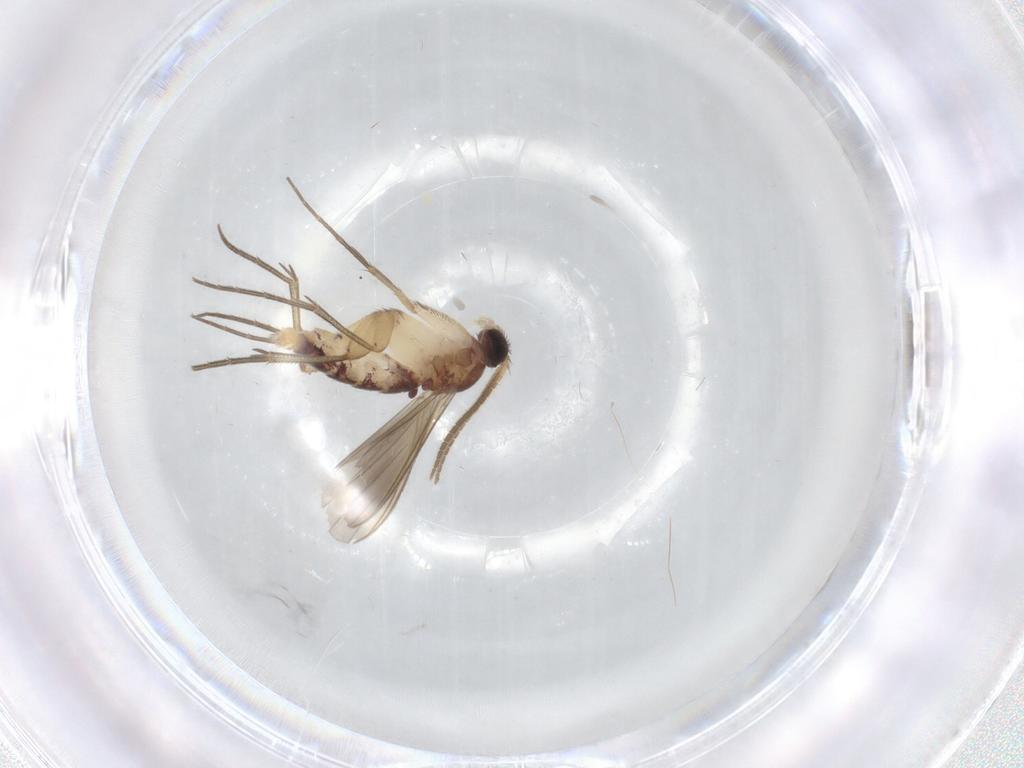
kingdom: Animalia
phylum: Arthropoda
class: Insecta
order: Diptera
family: Mycetophilidae
